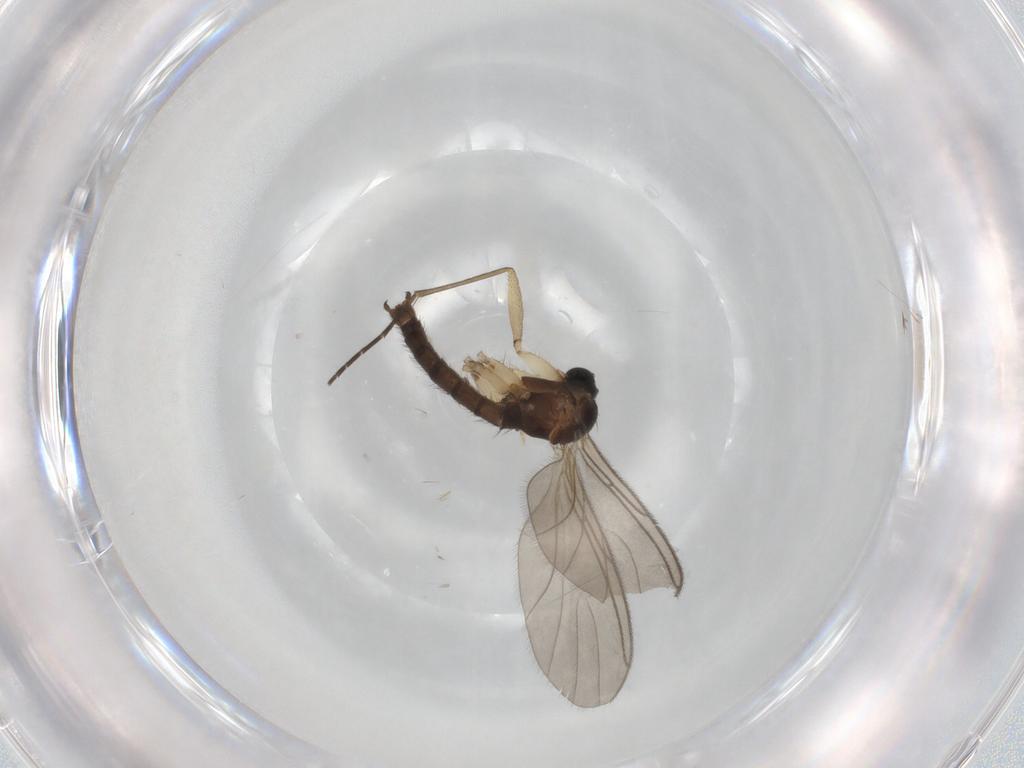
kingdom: Animalia
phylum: Arthropoda
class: Insecta
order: Diptera
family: Sciaridae
